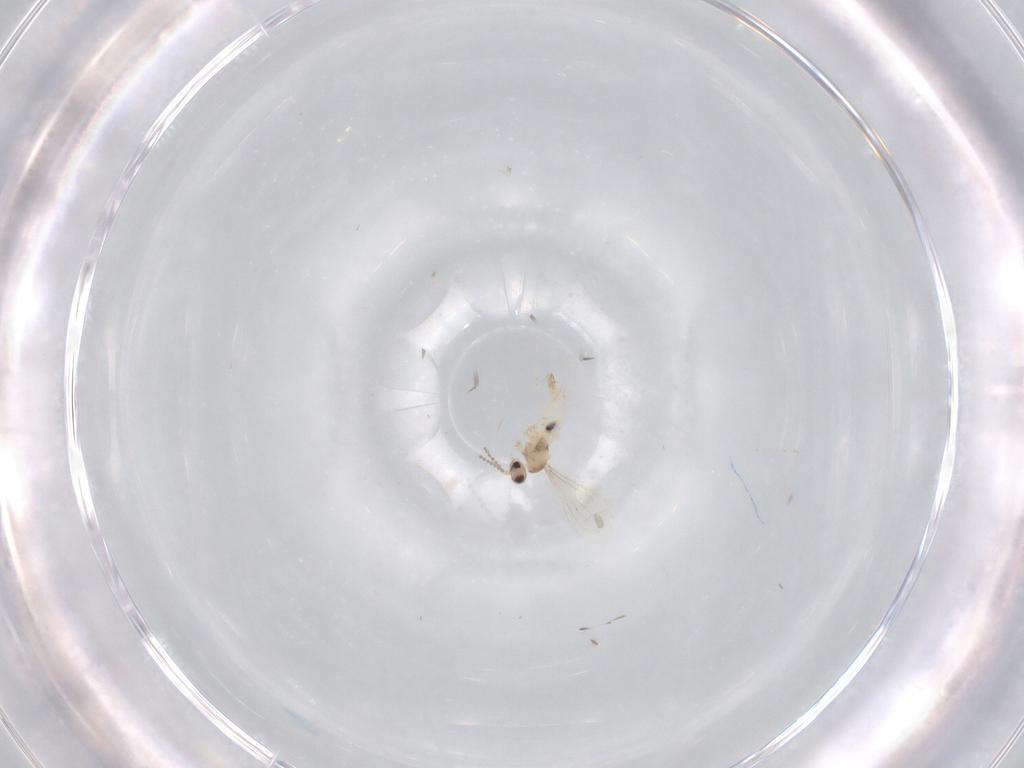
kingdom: Animalia
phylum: Arthropoda
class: Insecta
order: Diptera
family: Cecidomyiidae
